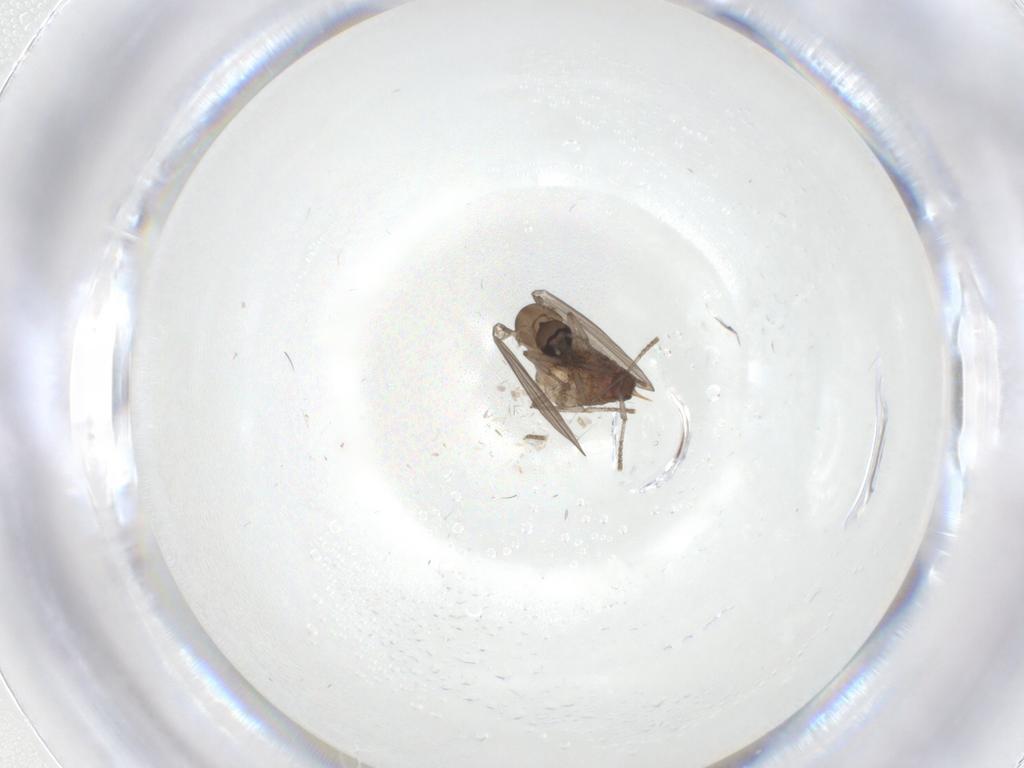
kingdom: Animalia
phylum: Arthropoda
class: Insecta
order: Diptera
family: Psychodidae
